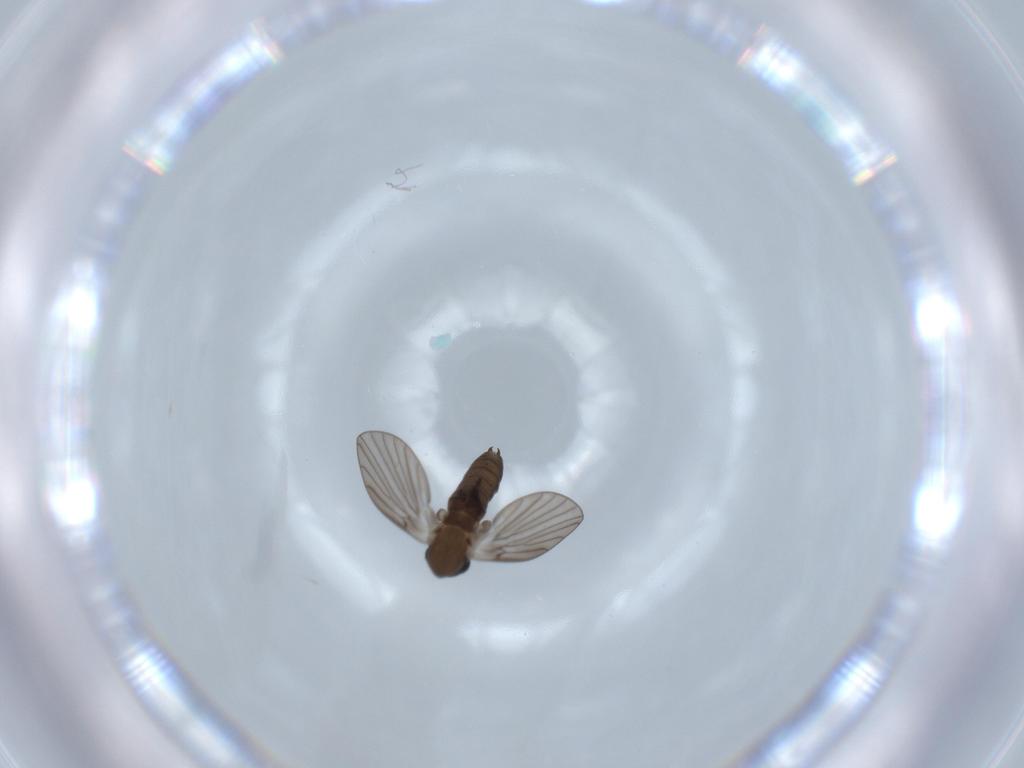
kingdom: Animalia
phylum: Arthropoda
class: Insecta
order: Diptera
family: Psychodidae
